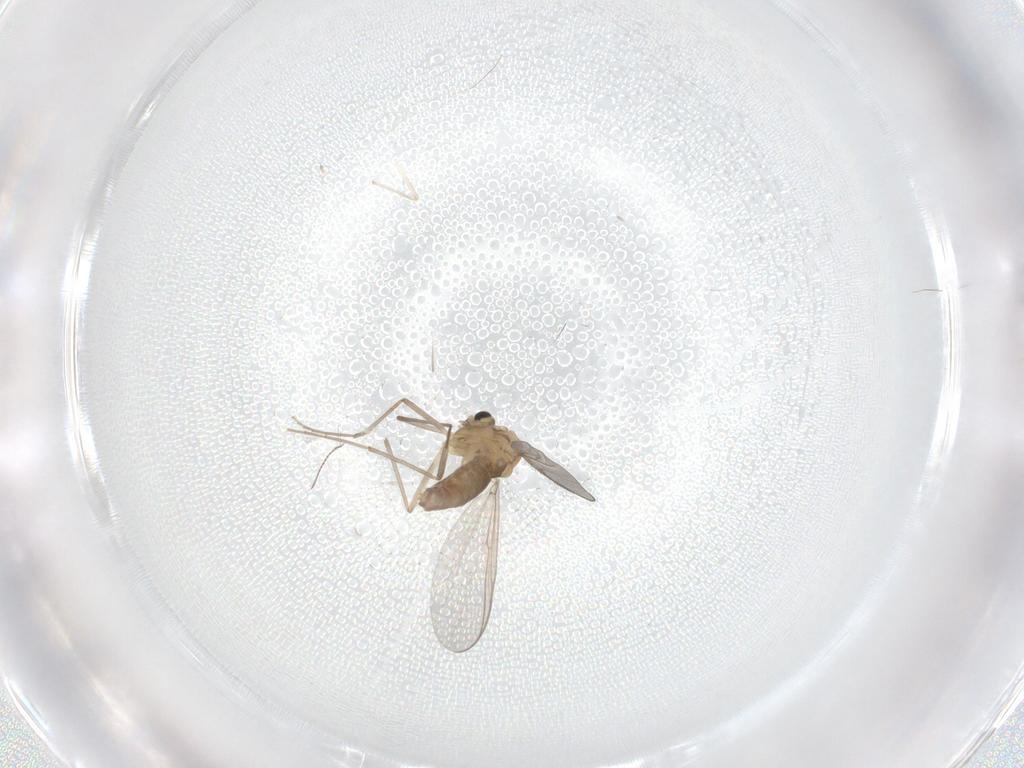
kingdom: Animalia
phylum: Arthropoda
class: Insecta
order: Diptera
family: Chironomidae
